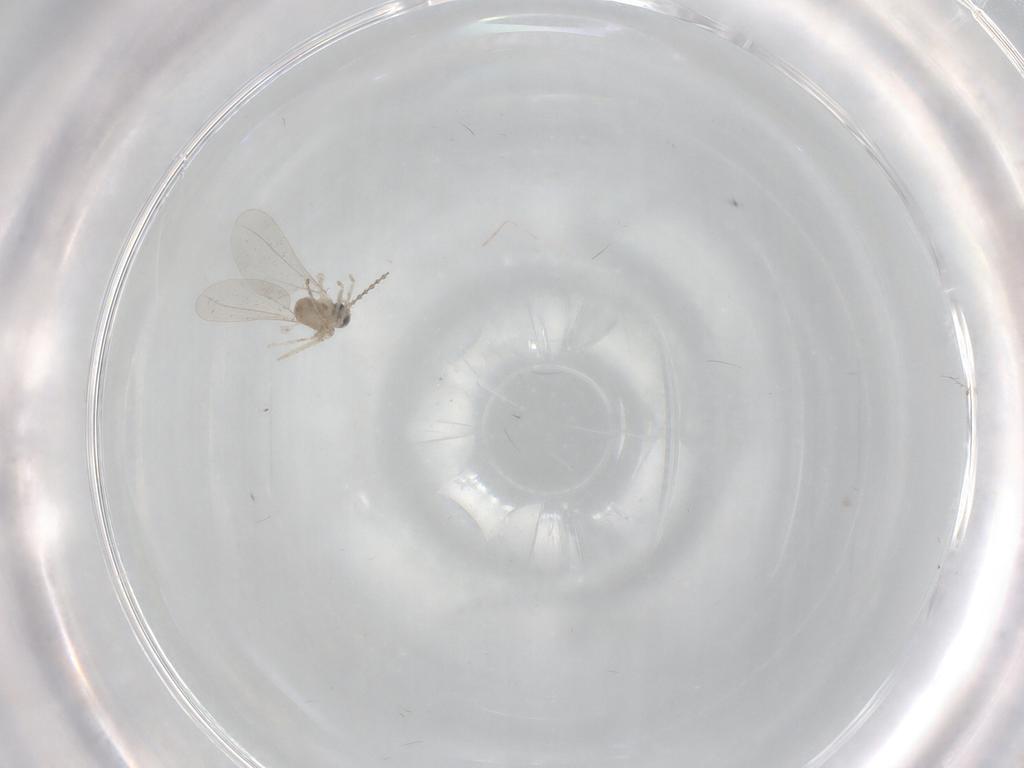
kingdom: Animalia
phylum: Arthropoda
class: Insecta
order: Diptera
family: Cecidomyiidae
